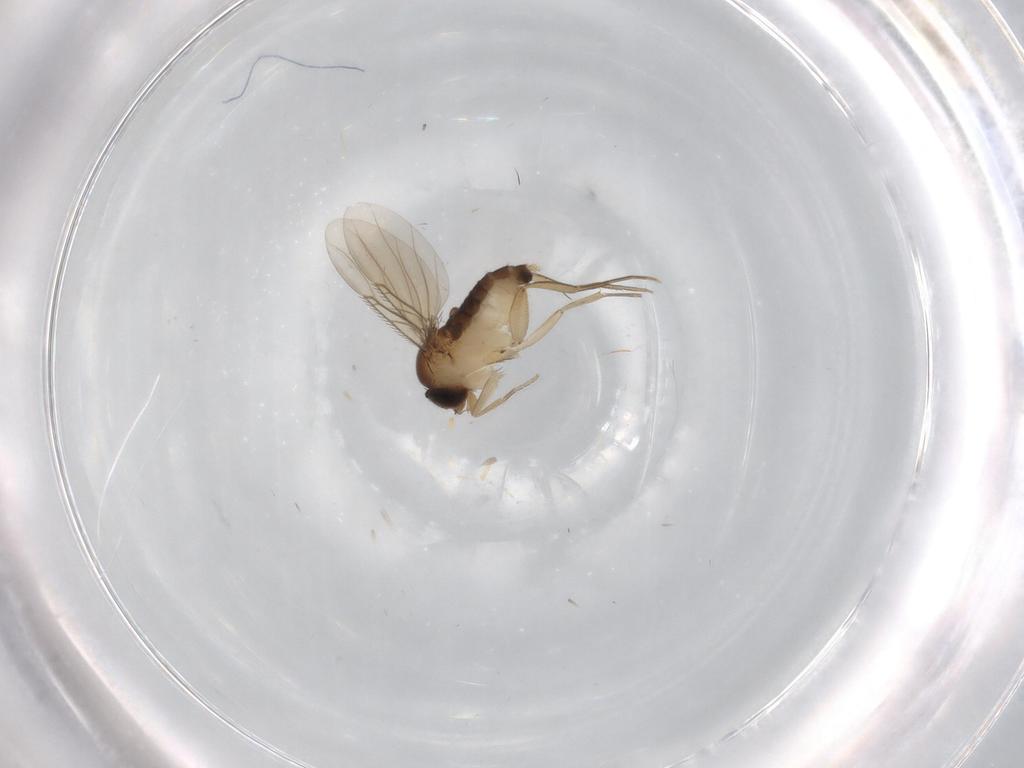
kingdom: Animalia
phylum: Arthropoda
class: Insecta
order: Diptera
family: Phoridae
